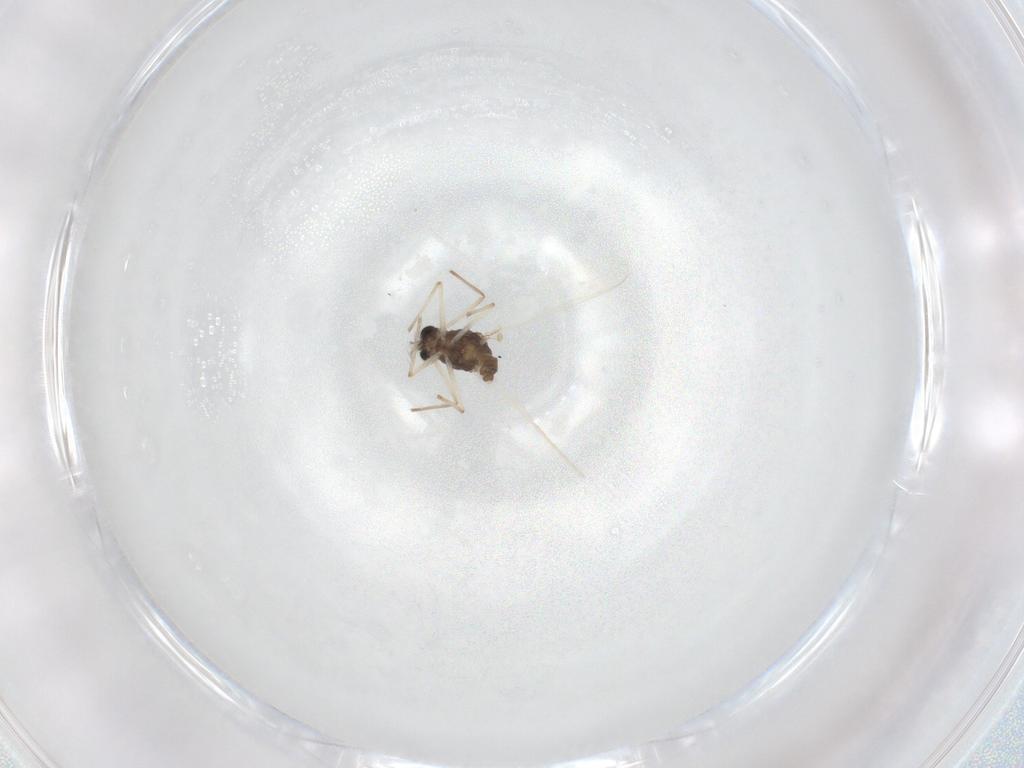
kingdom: Animalia
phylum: Arthropoda
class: Insecta
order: Diptera
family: Chironomidae
